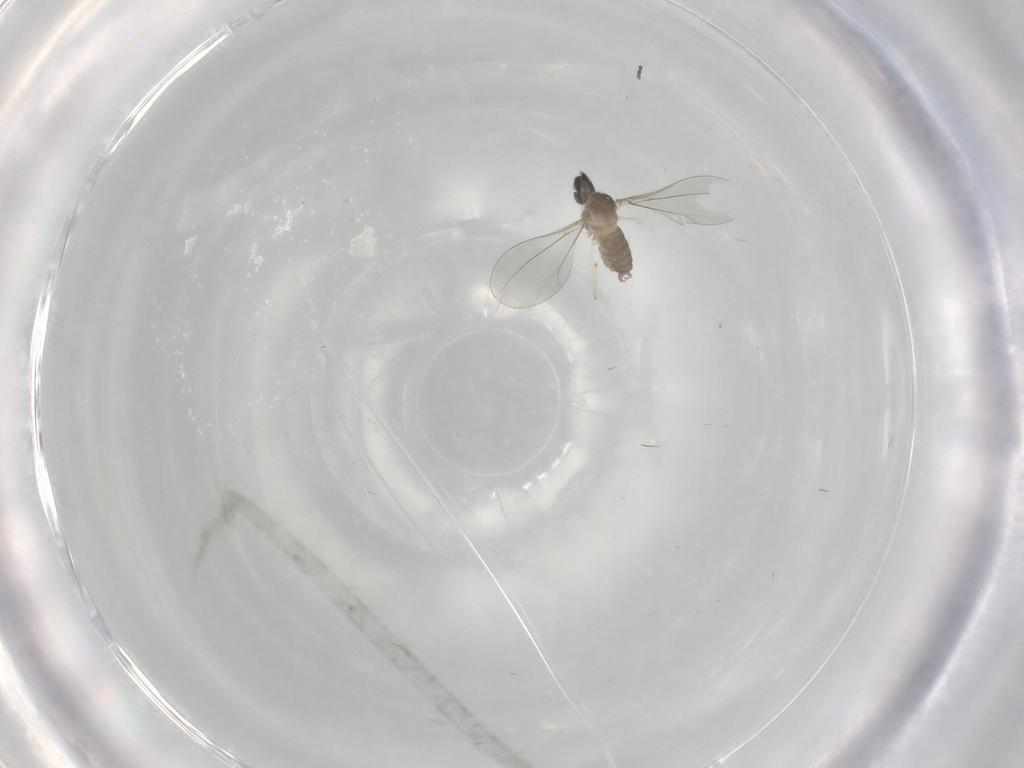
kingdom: Animalia
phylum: Arthropoda
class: Insecta
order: Diptera
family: Cecidomyiidae
